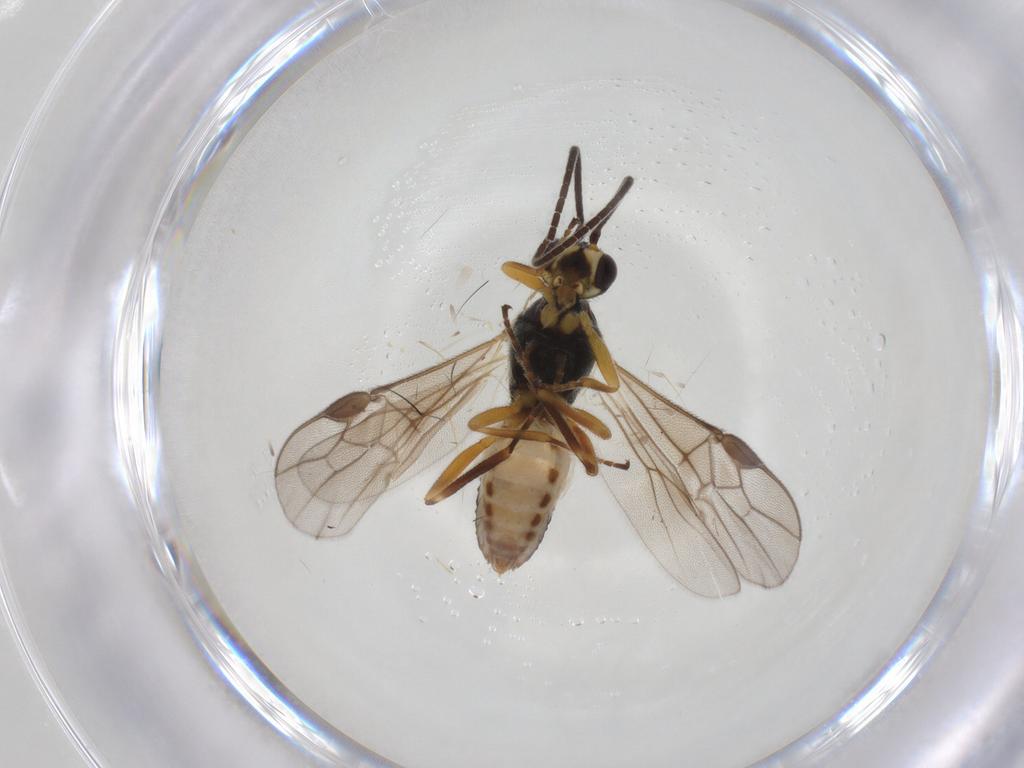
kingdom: Animalia
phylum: Arthropoda
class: Insecta
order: Hymenoptera
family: Braconidae
